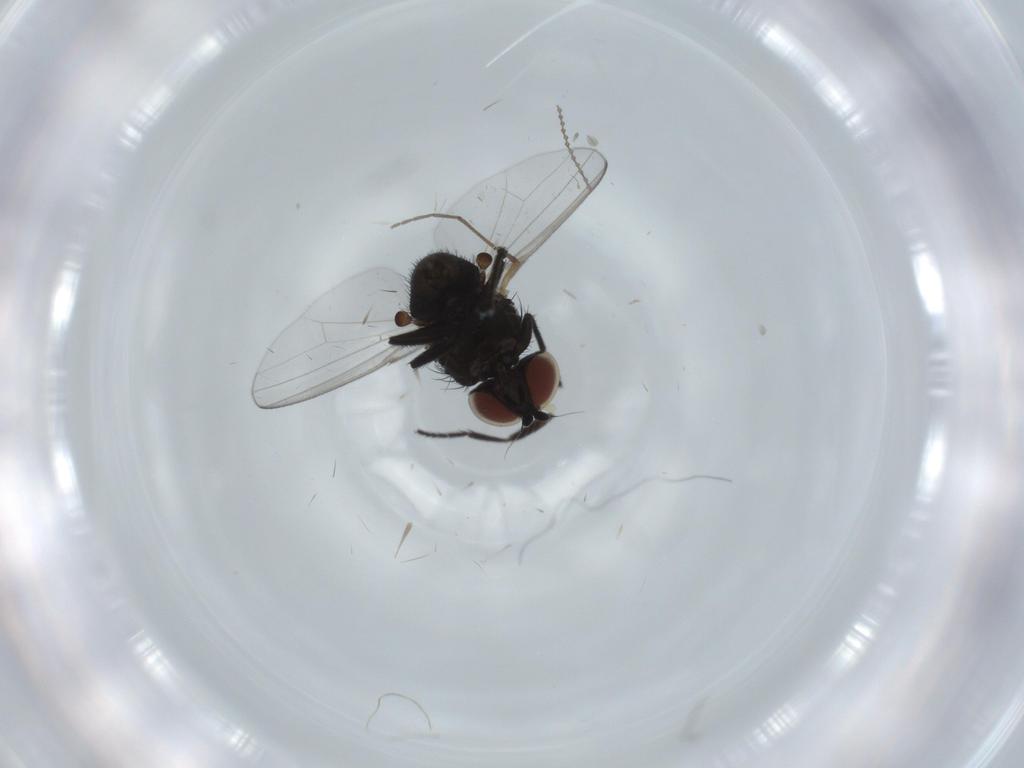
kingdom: Animalia
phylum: Arthropoda
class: Insecta
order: Diptera
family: Milichiidae
